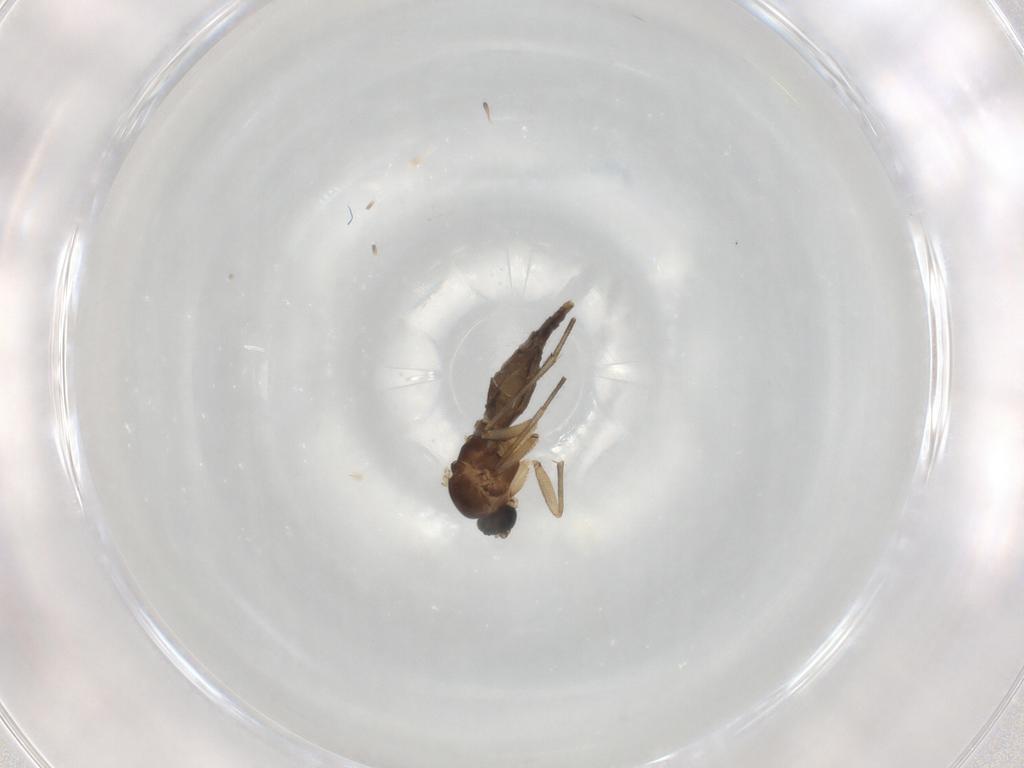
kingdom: Animalia
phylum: Arthropoda
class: Insecta
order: Diptera
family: Sciaridae
